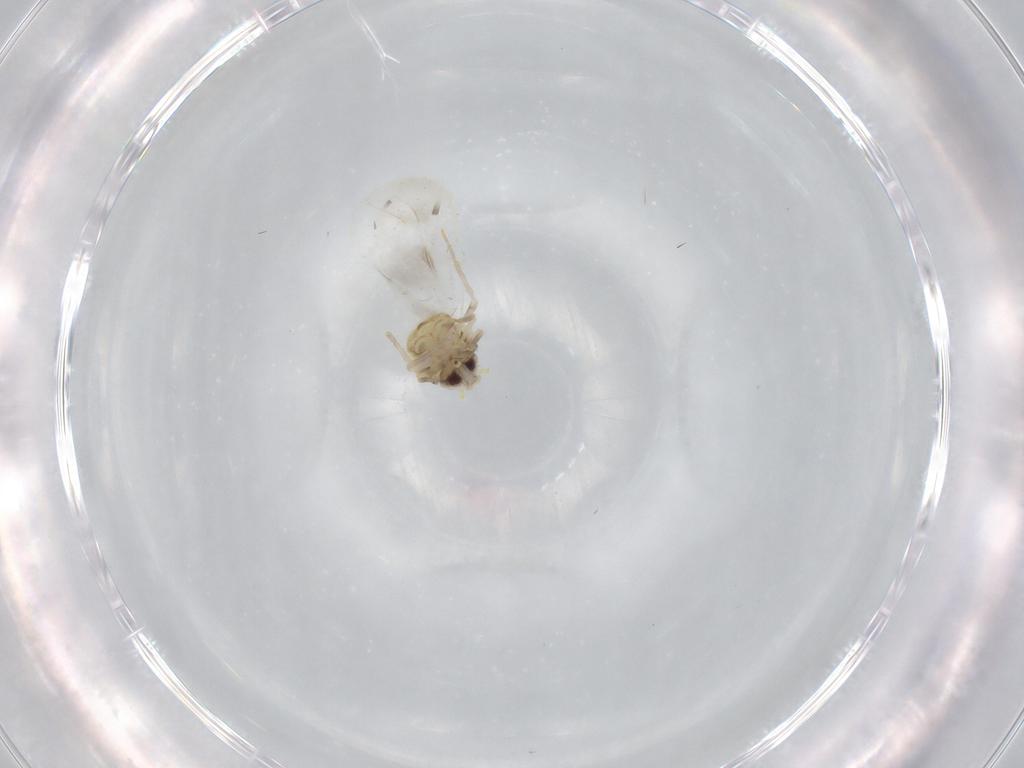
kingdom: Animalia
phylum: Arthropoda
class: Insecta
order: Hemiptera
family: Aleyrodidae
